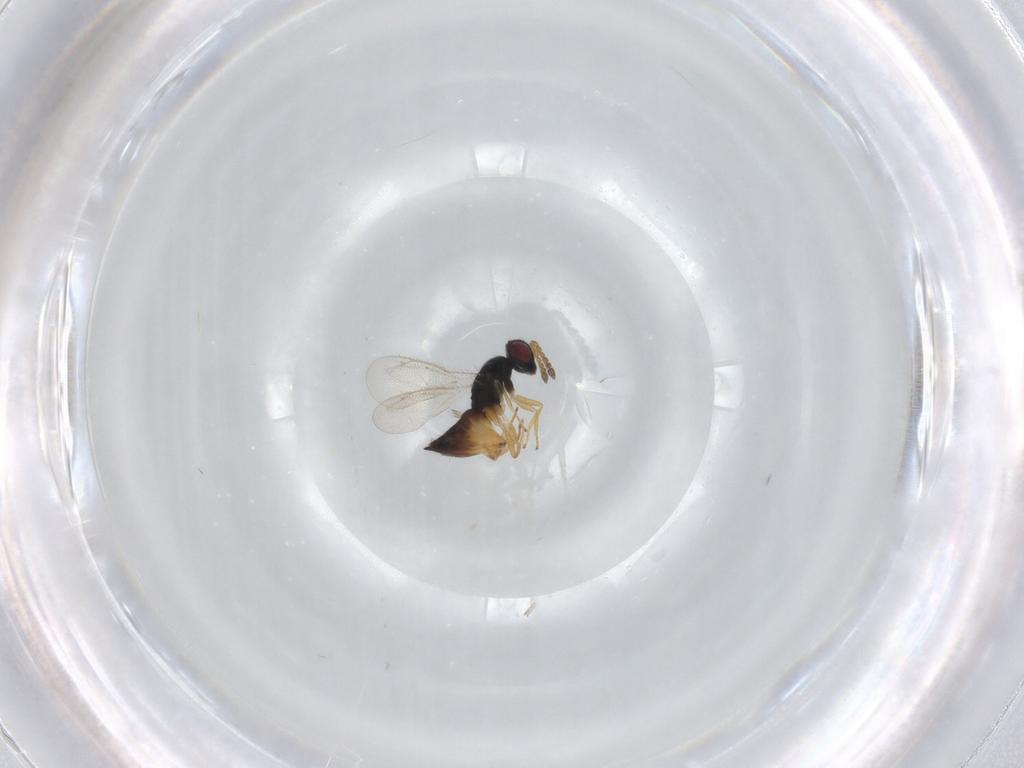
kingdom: Animalia
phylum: Arthropoda
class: Insecta
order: Hymenoptera
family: Eulophidae
